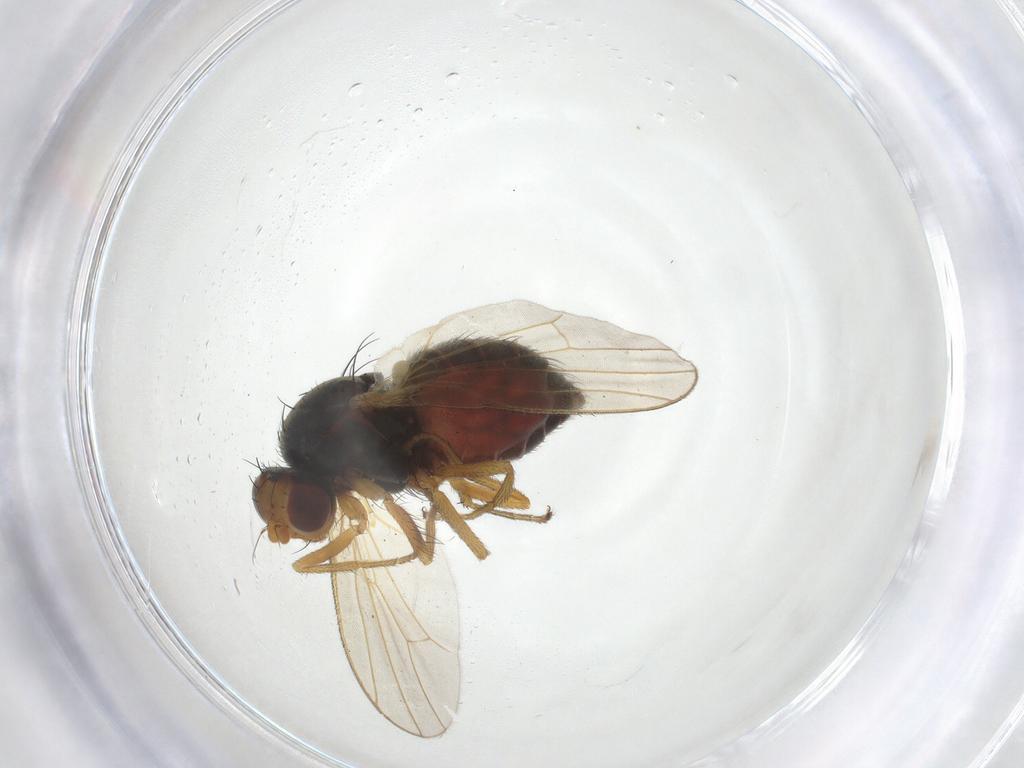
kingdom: Animalia
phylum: Arthropoda
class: Insecta
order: Diptera
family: Heleomyzidae
